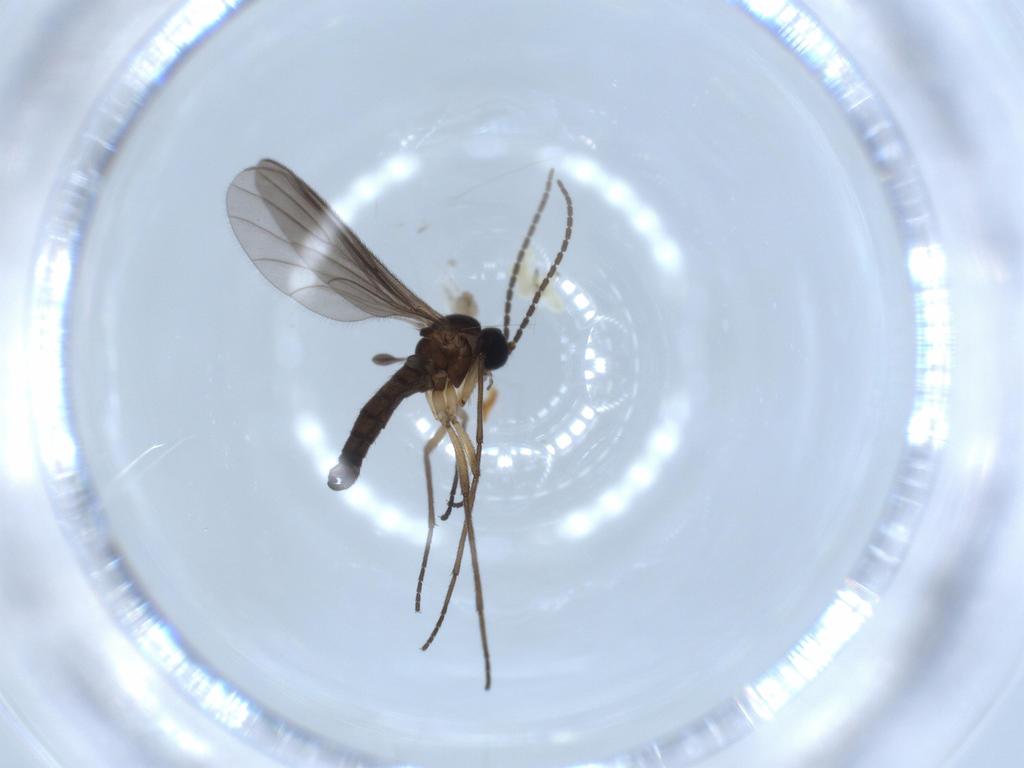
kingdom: Animalia
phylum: Arthropoda
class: Insecta
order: Diptera
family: Cecidomyiidae
